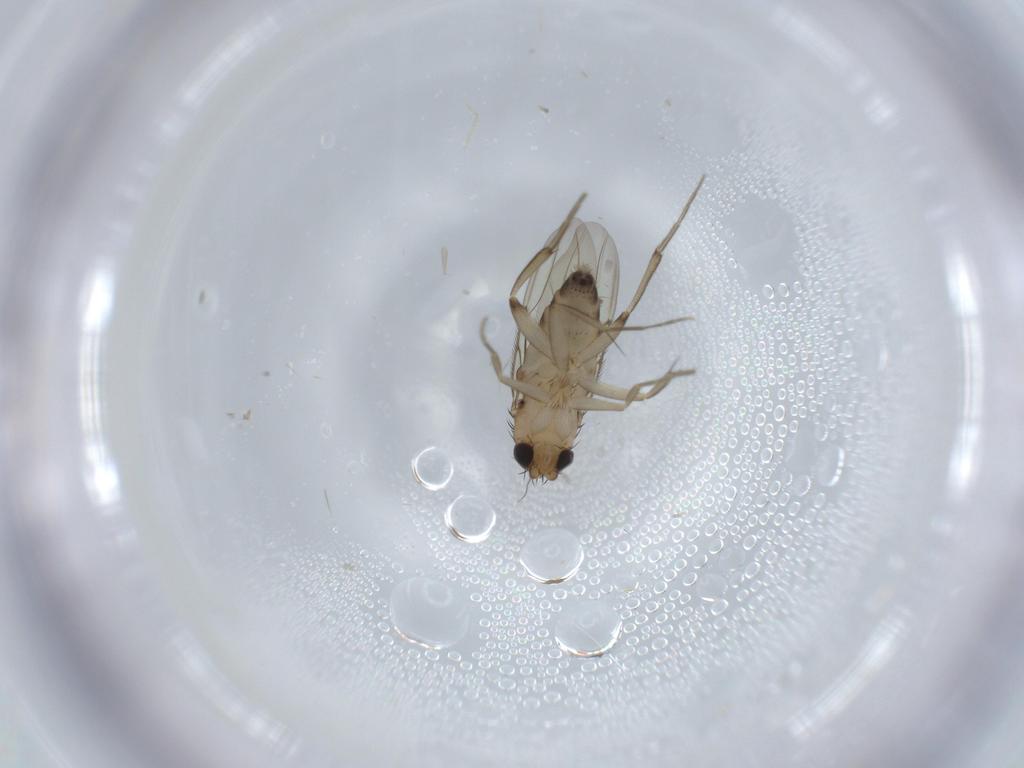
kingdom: Animalia
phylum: Arthropoda
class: Insecta
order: Diptera
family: Phoridae
